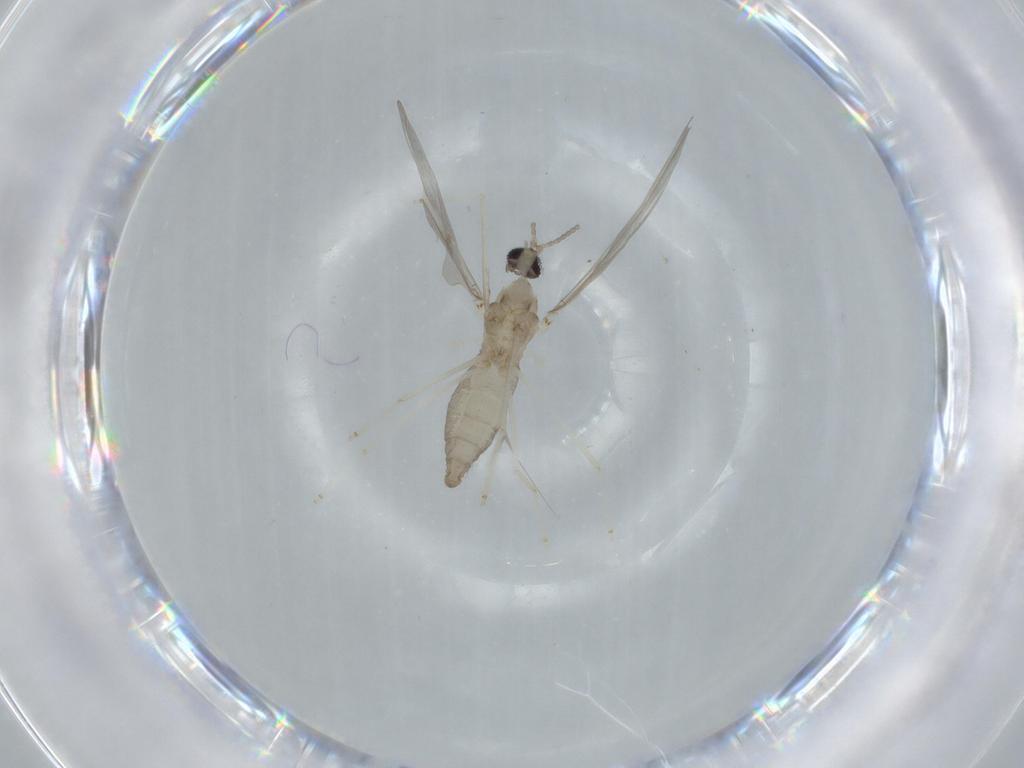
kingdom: Animalia
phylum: Arthropoda
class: Insecta
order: Diptera
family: Cecidomyiidae
